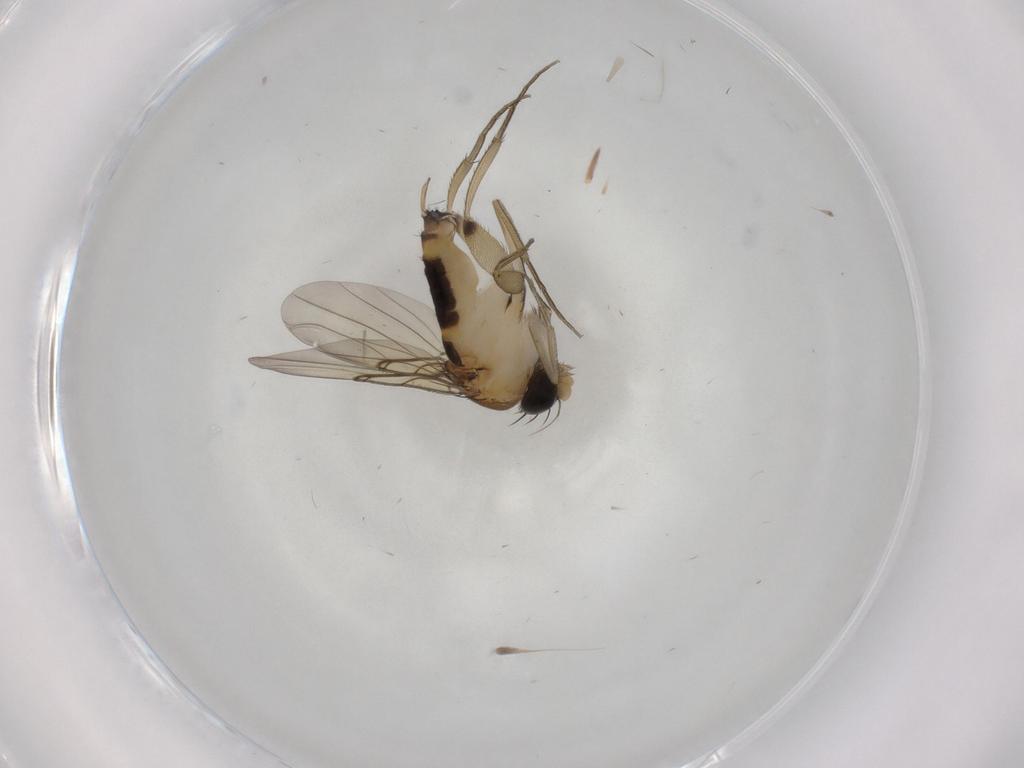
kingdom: Animalia
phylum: Arthropoda
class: Insecta
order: Diptera
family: Phoridae
